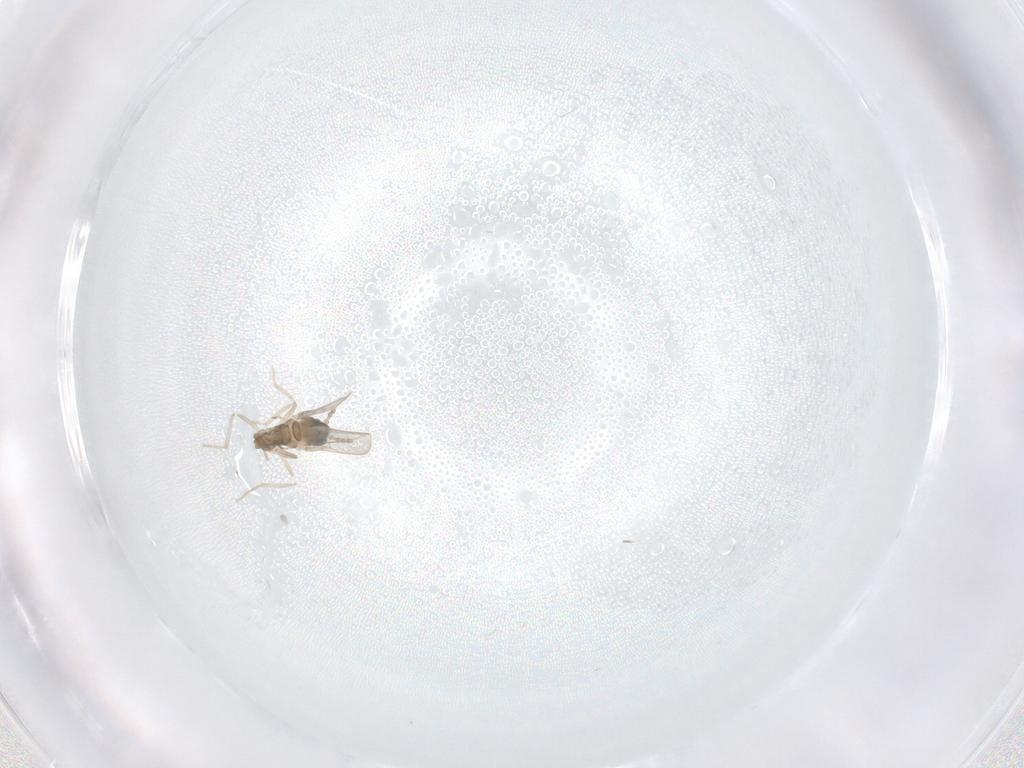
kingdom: Animalia
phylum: Arthropoda
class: Insecta
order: Diptera
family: Cecidomyiidae
